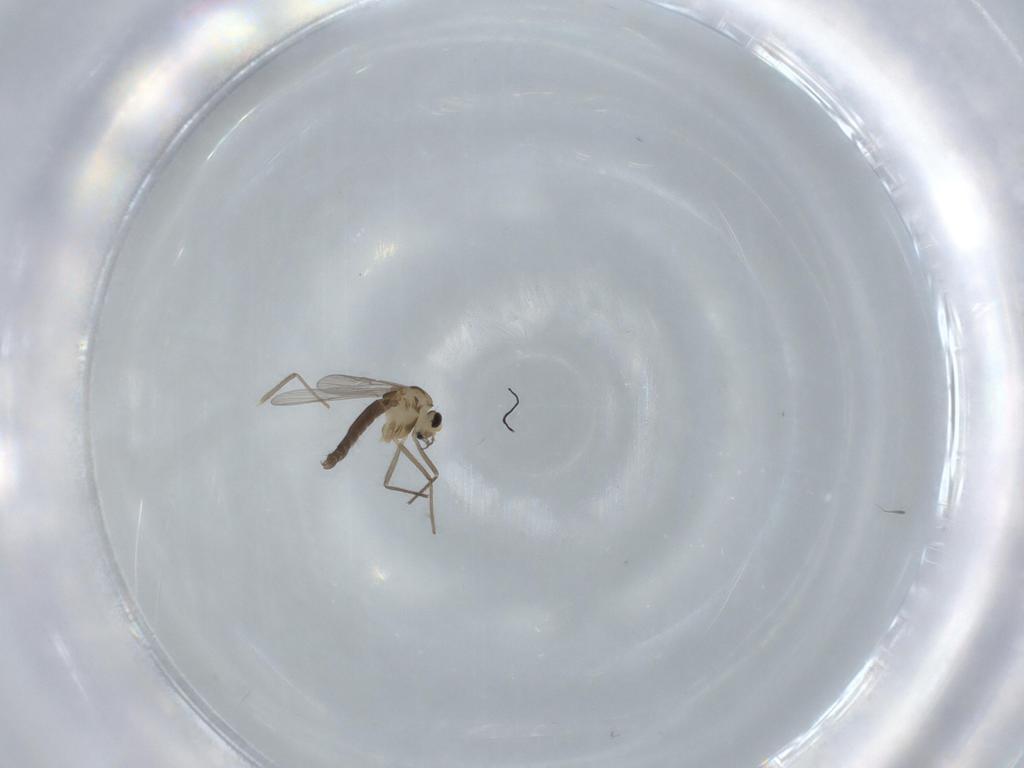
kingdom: Animalia
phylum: Arthropoda
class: Insecta
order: Diptera
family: Chironomidae
